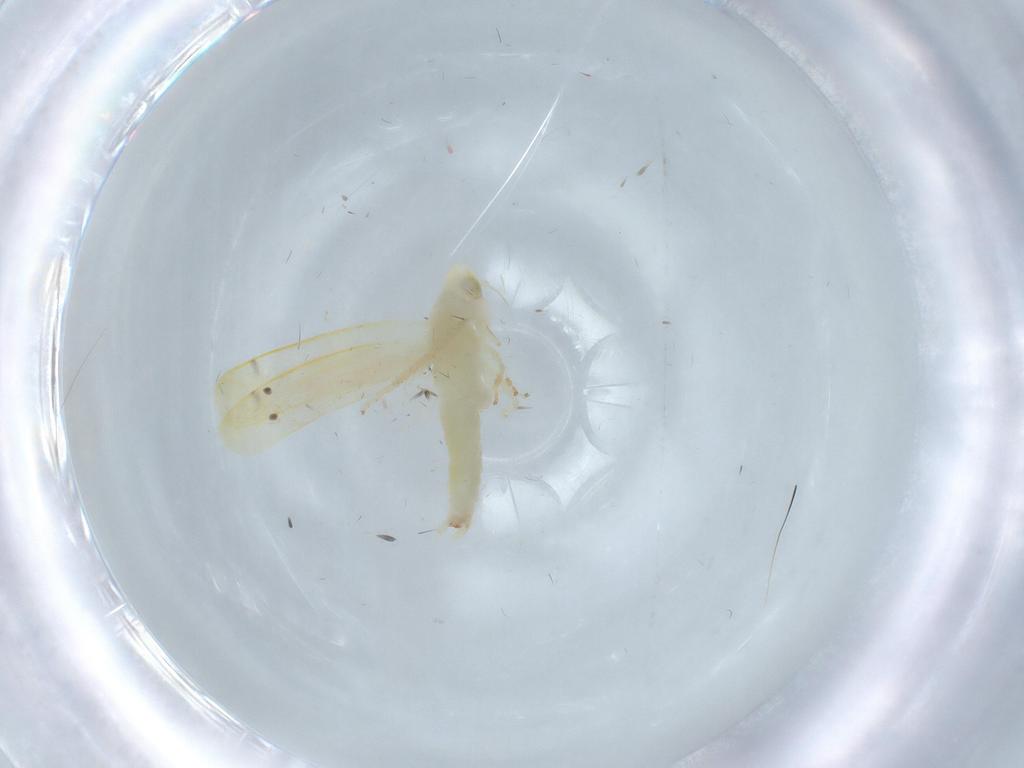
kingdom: Animalia
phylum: Arthropoda
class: Insecta
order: Hemiptera
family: Cicadellidae
